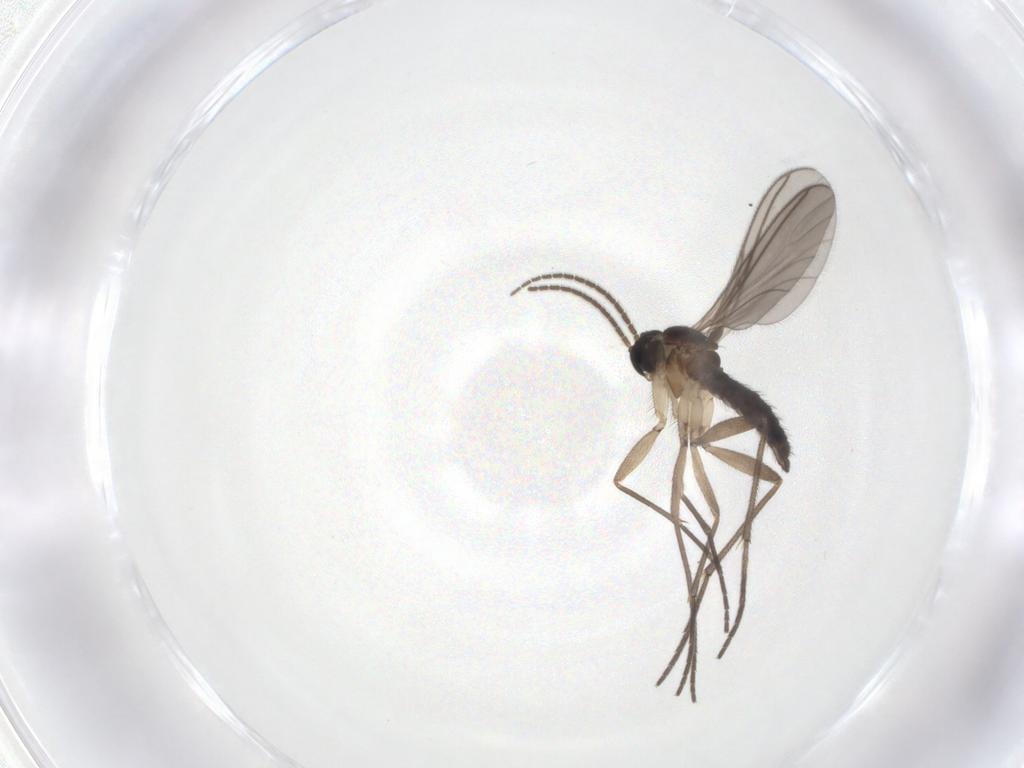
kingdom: Animalia
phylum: Arthropoda
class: Insecta
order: Diptera
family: Sciaridae
